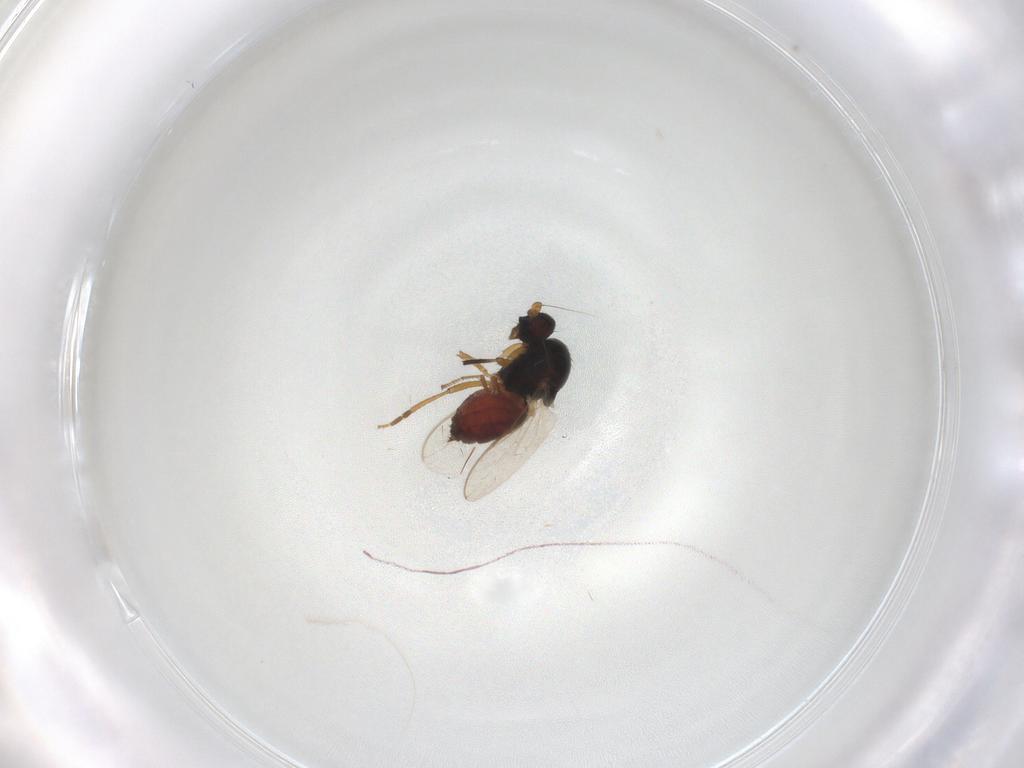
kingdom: Animalia
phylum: Arthropoda
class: Insecta
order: Diptera
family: Sphaeroceridae
